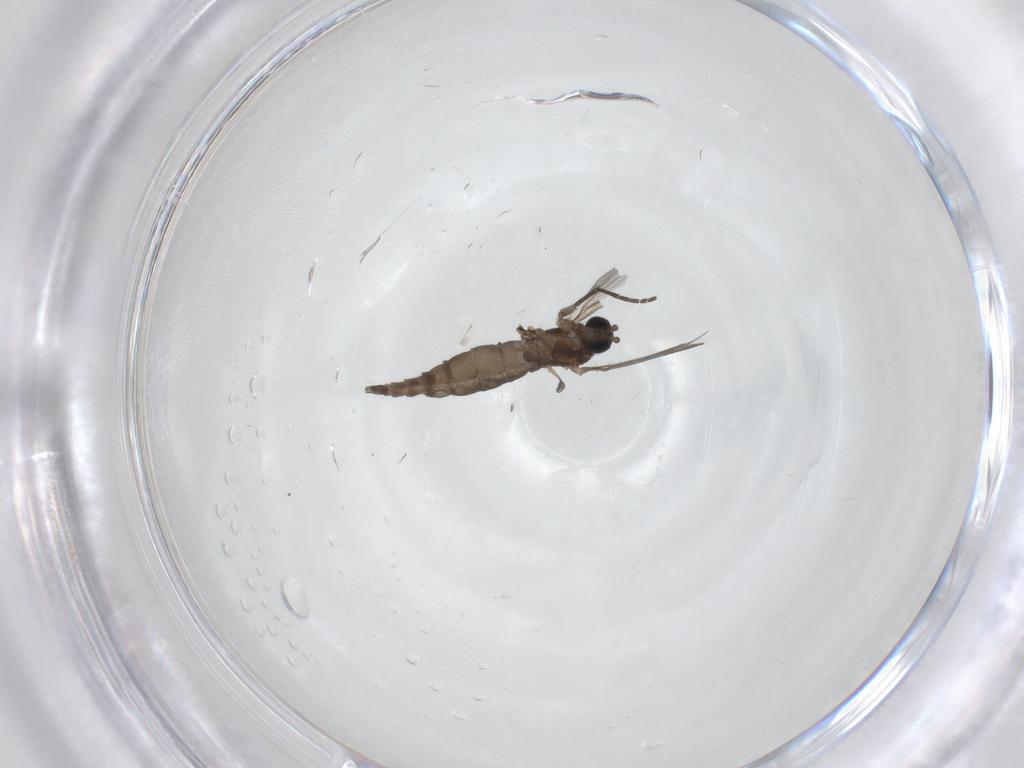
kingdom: Animalia
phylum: Arthropoda
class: Insecta
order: Diptera
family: Sciaridae
